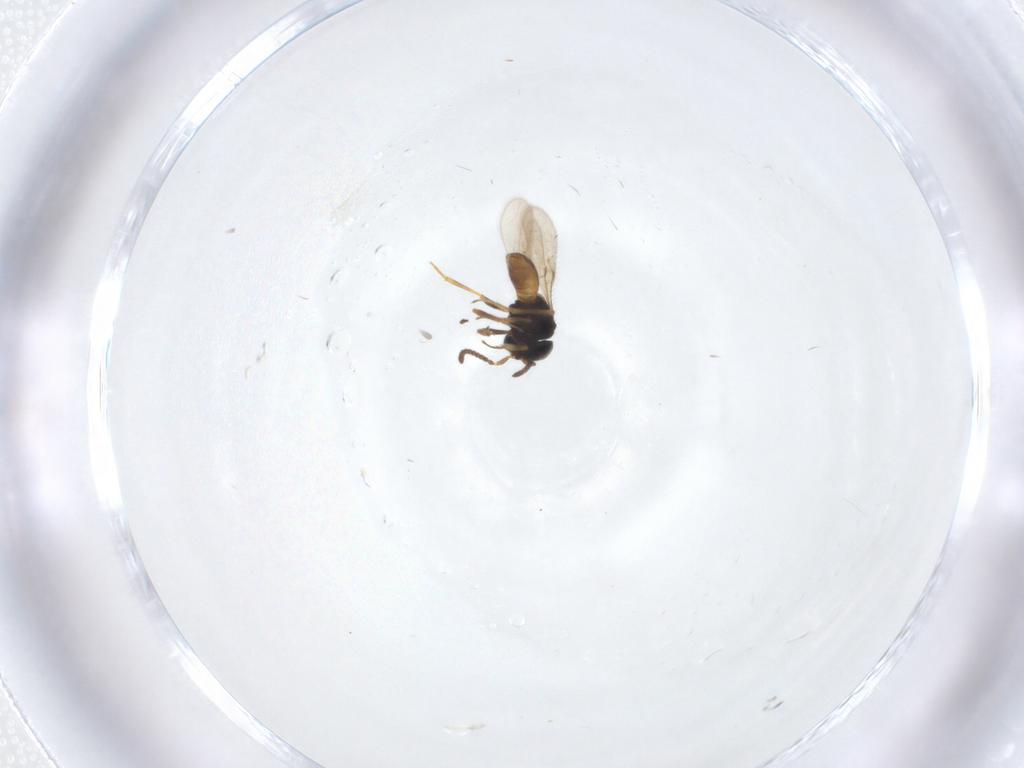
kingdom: Animalia
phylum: Arthropoda
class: Insecta
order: Hymenoptera
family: Scelionidae
